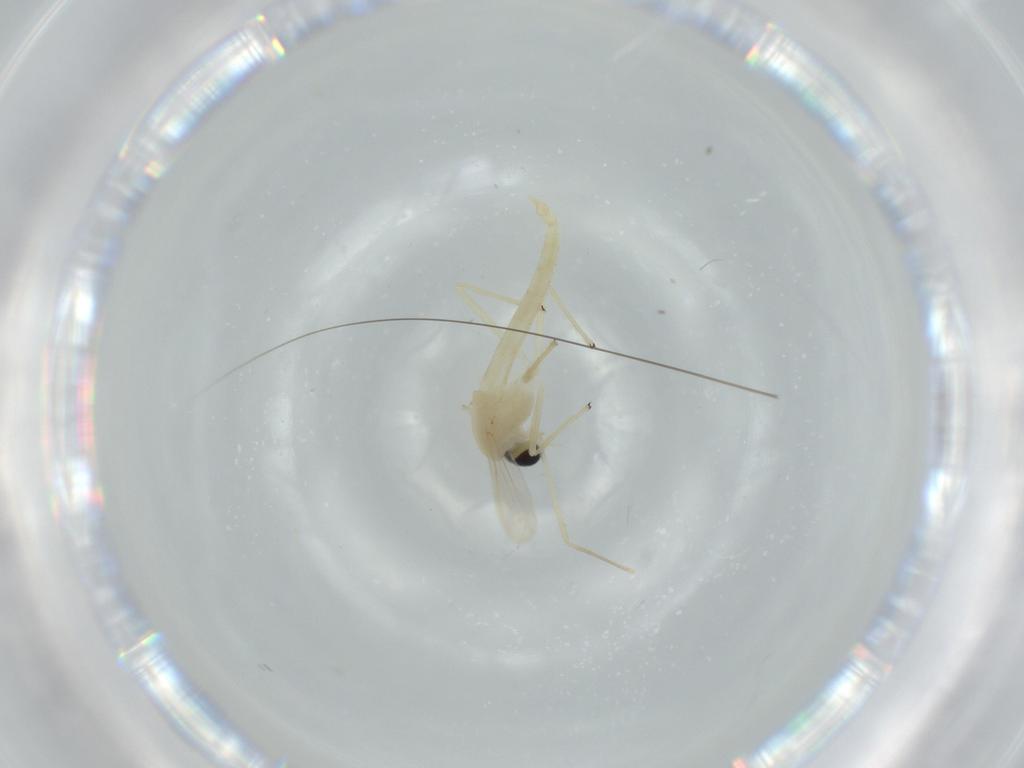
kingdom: Animalia
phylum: Arthropoda
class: Insecta
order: Diptera
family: Chironomidae
